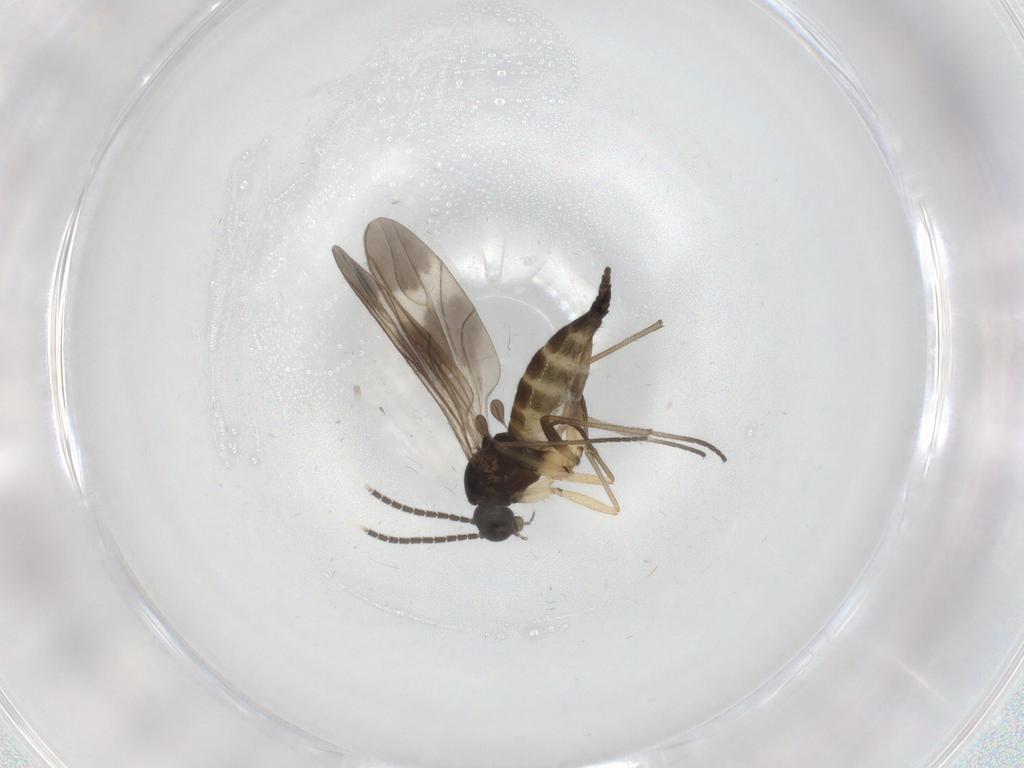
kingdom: Animalia
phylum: Arthropoda
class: Insecta
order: Diptera
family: Sciaridae
